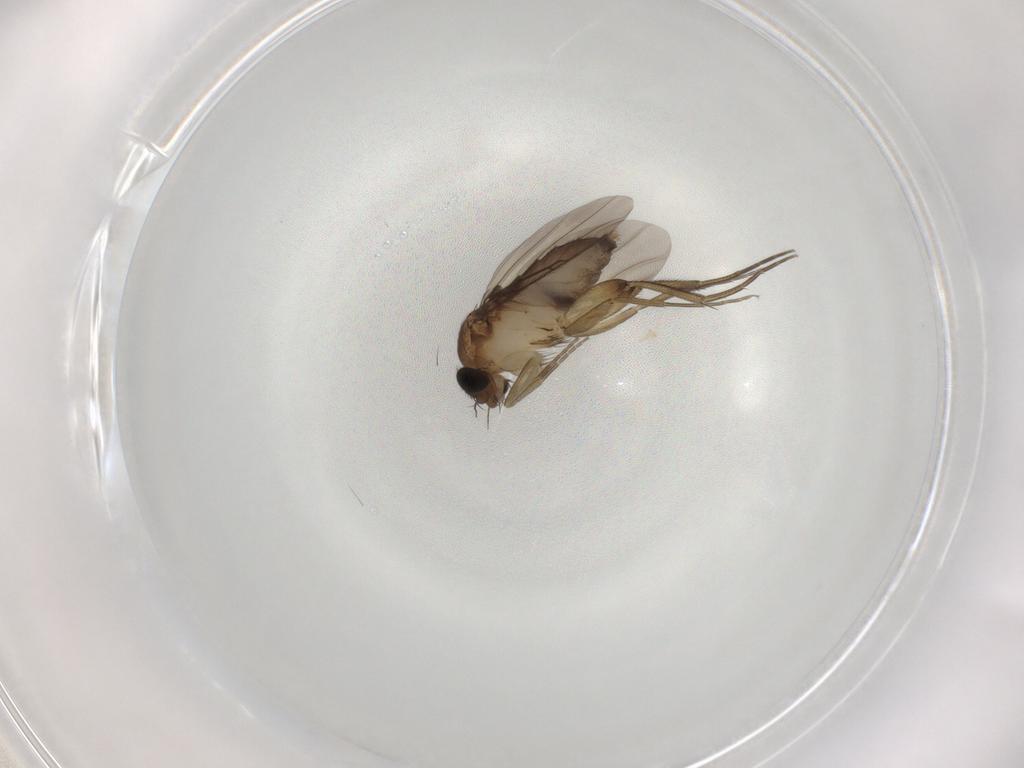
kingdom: Animalia
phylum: Arthropoda
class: Insecta
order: Diptera
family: Phoridae
